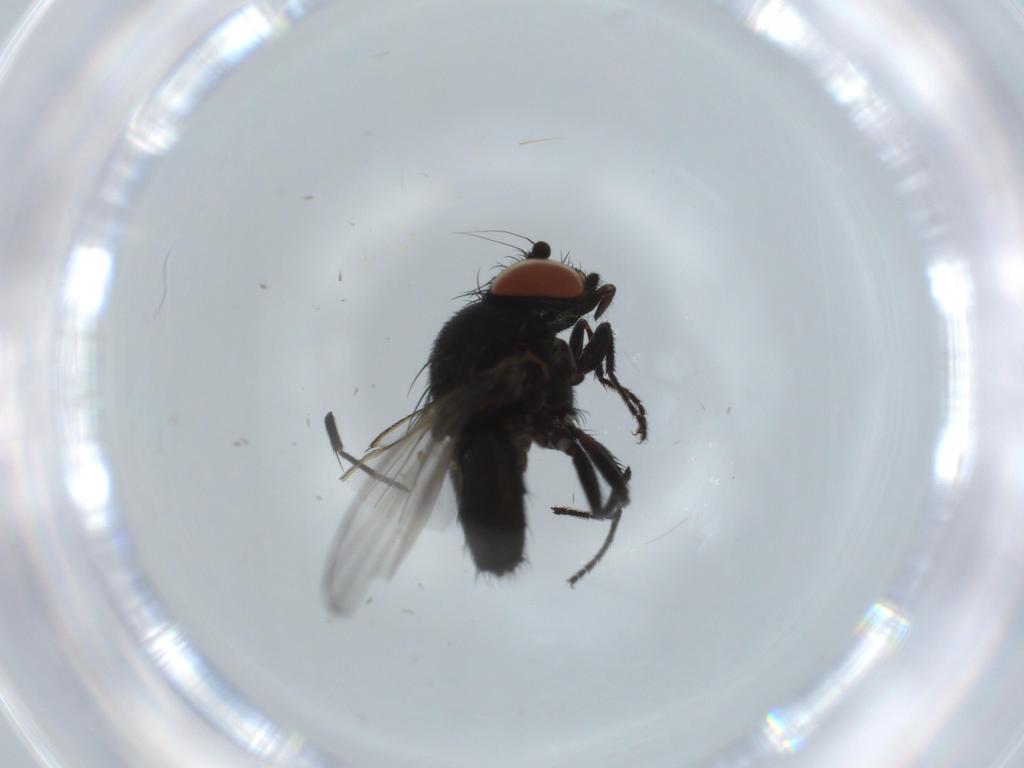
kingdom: Animalia
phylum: Arthropoda
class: Insecta
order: Diptera
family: Milichiidae
